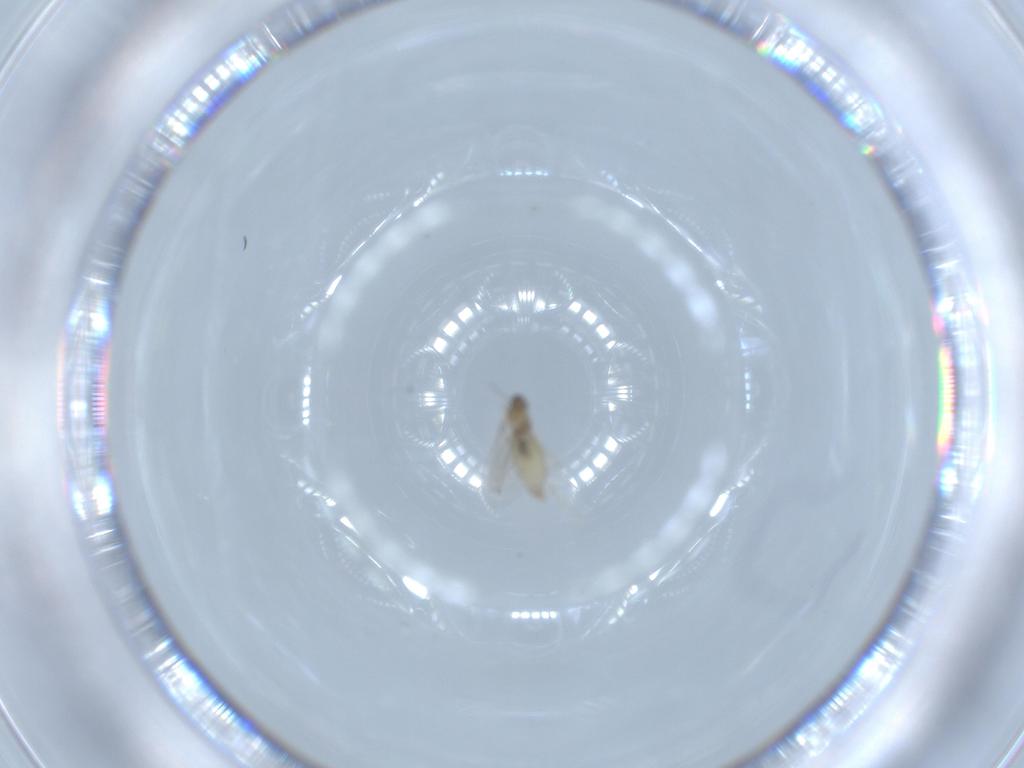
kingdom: Animalia
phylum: Arthropoda
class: Insecta
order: Diptera
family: Cecidomyiidae
